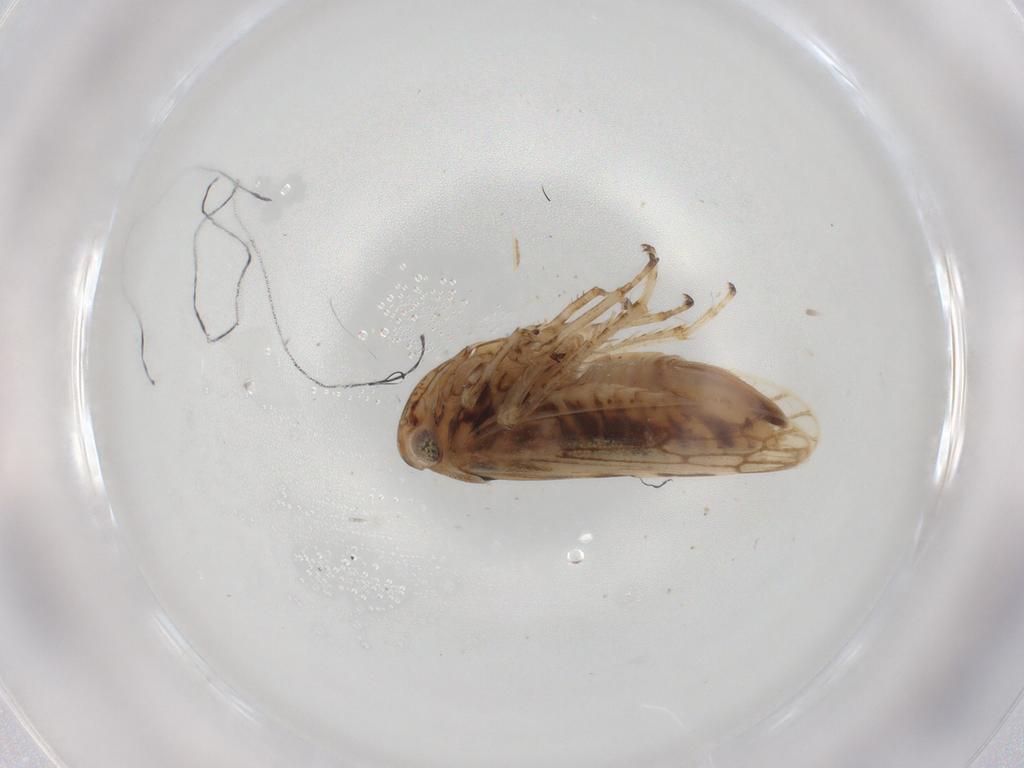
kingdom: Animalia
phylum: Arthropoda
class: Insecta
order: Hemiptera
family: Cicadellidae
